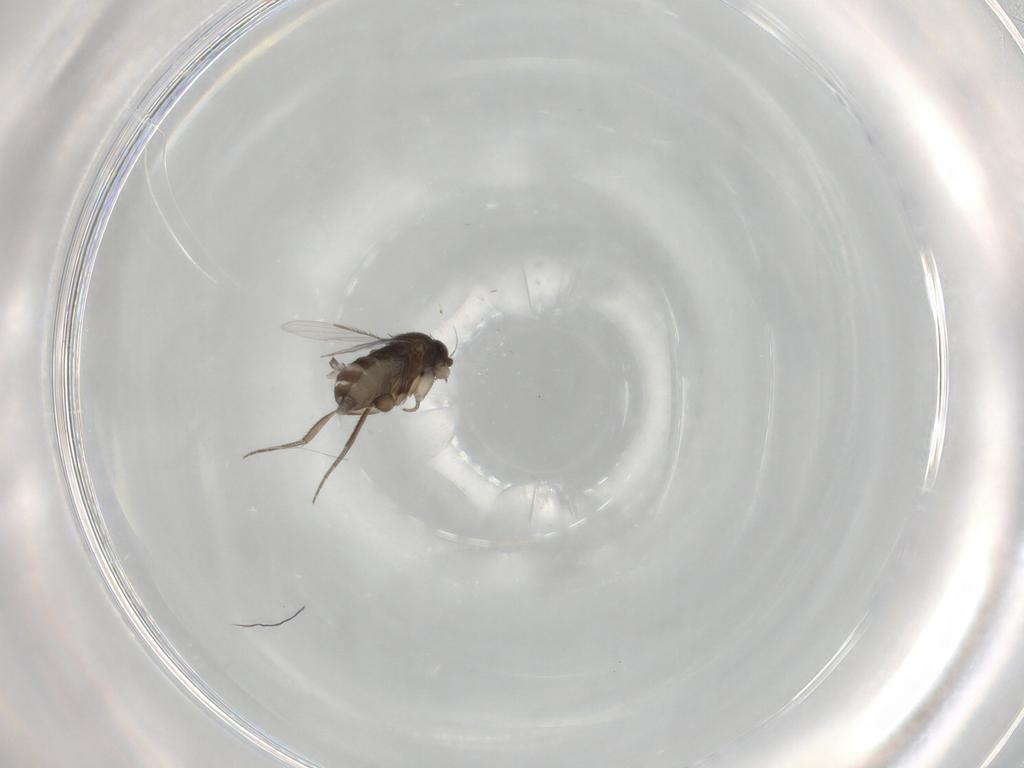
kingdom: Animalia
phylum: Arthropoda
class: Insecta
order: Diptera
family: Phoridae
